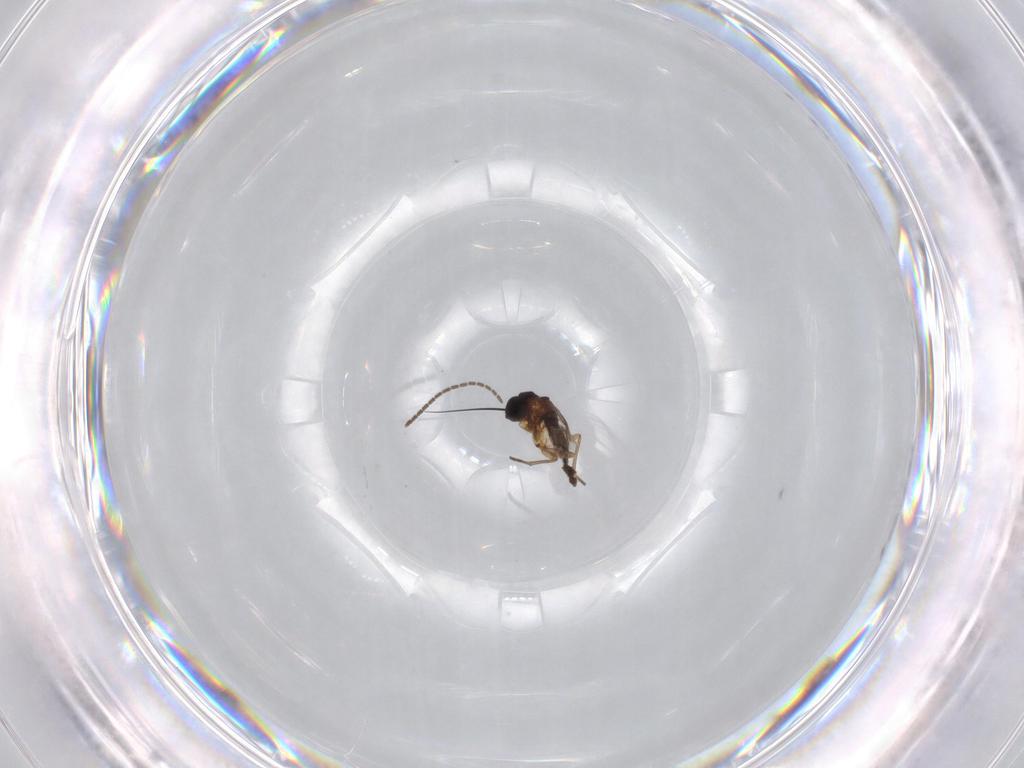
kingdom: Animalia
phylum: Arthropoda
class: Insecta
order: Diptera
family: Sciaridae
